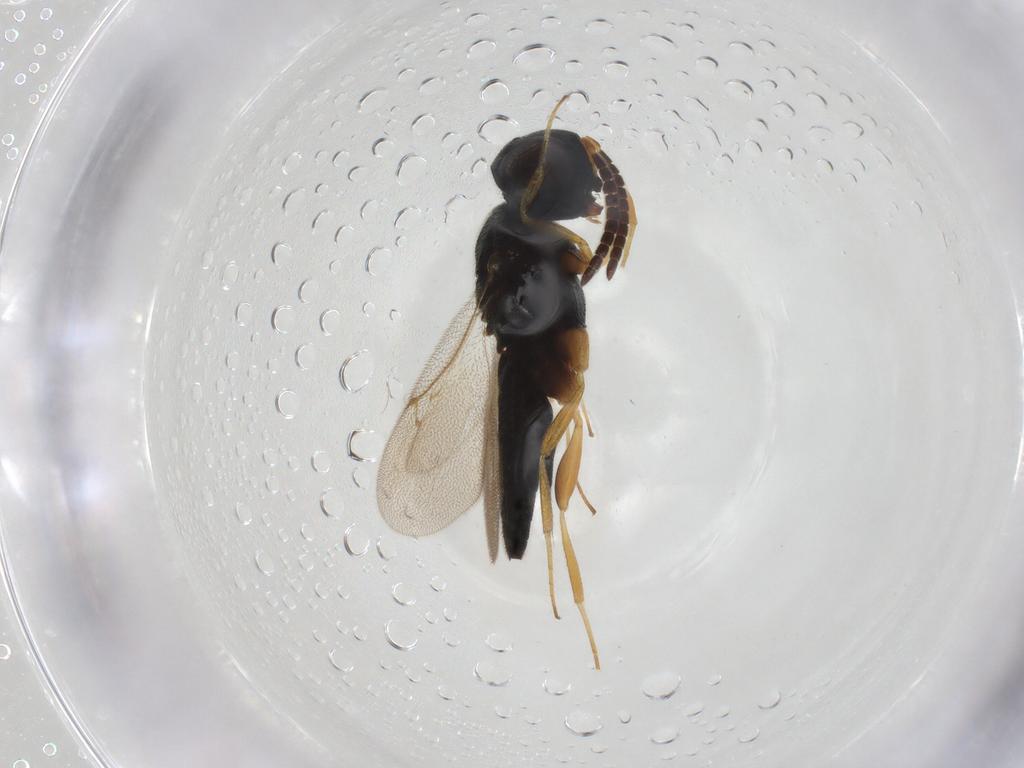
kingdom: Animalia
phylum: Arthropoda
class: Insecta
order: Hymenoptera
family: Scelionidae
